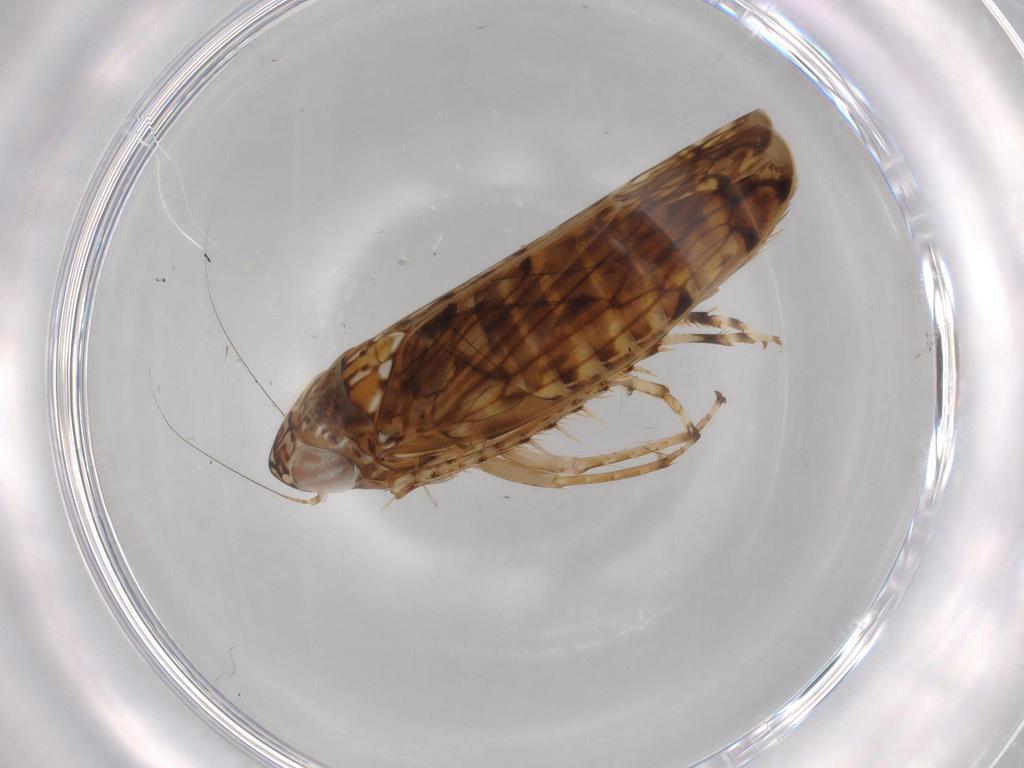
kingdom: Animalia
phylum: Arthropoda
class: Insecta
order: Hemiptera
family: Cicadellidae
